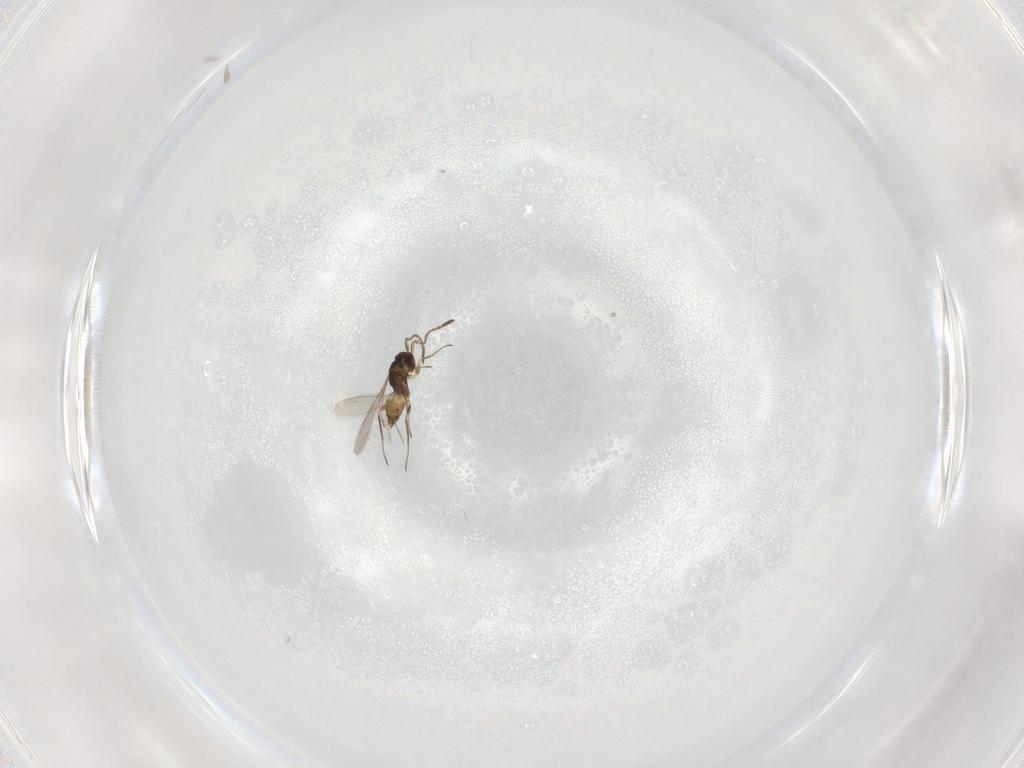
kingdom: Animalia
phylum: Arthropoda
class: Insecta
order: Hymenoptera
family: Mymaridae
